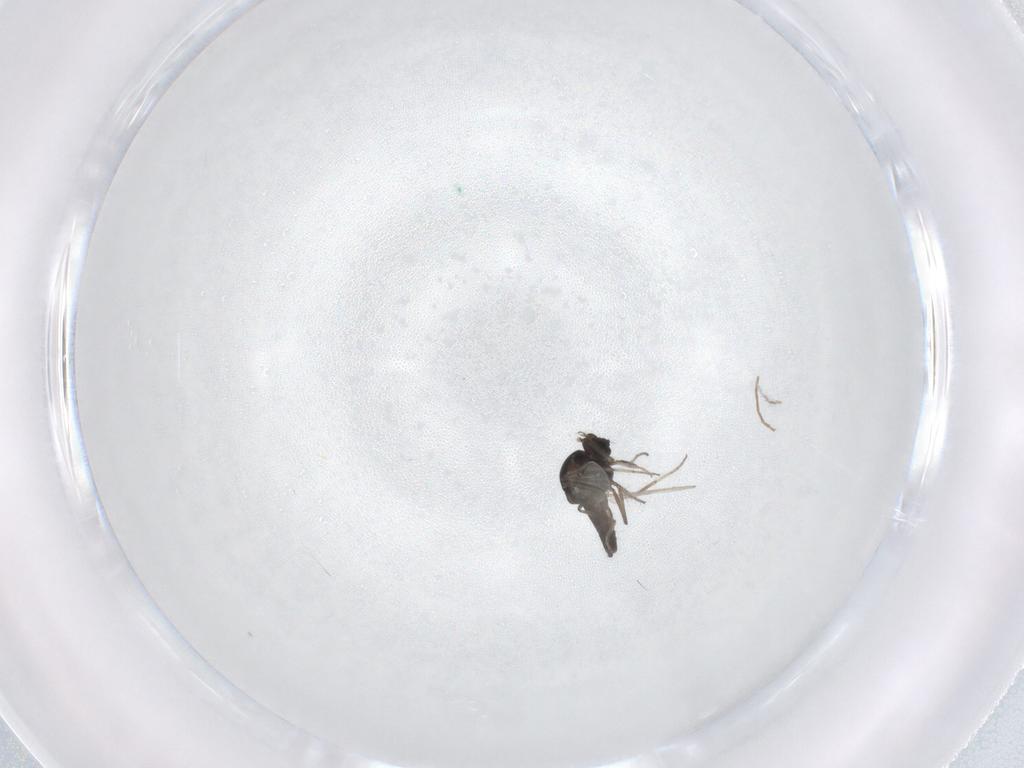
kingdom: Animalia
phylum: Arthropoda
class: Insecta
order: Diptera
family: Ceratopogonidae
